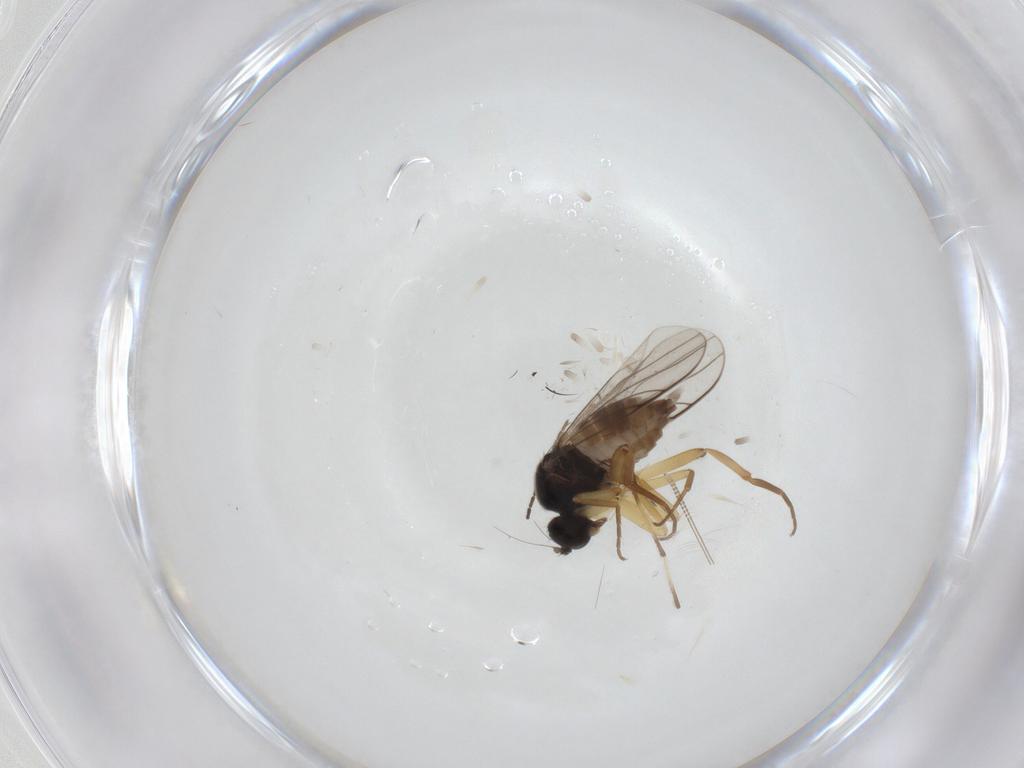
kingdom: Animalia
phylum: Arthropoda
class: Insecta
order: Diptera
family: Hybotidae
